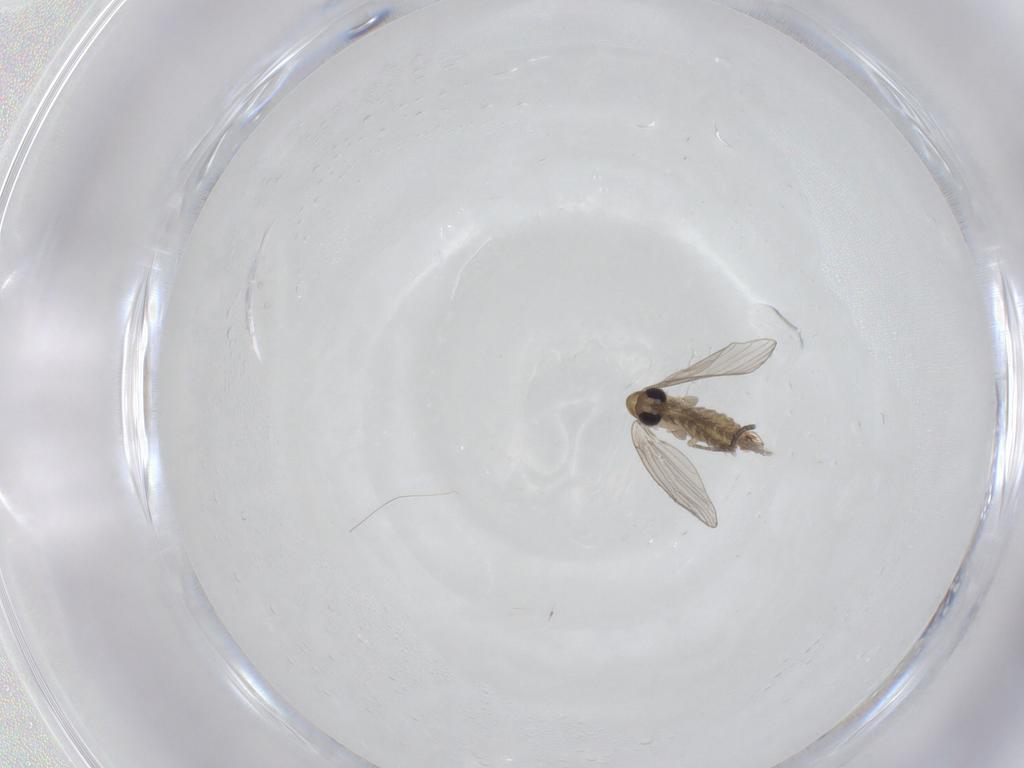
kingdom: Animalia
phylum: Arthropoda
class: Insecta
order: Diptera
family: Psychodidae
